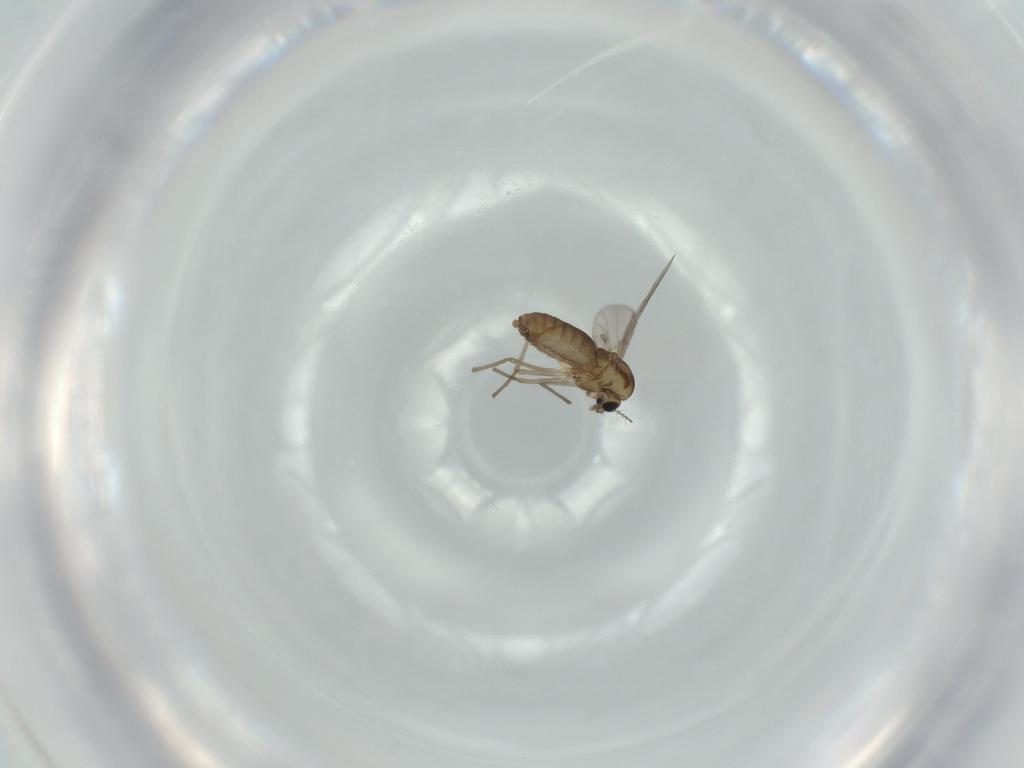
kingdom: Animalia
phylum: Arthropoda
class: Insecta
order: Diptera
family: Chironomidae
